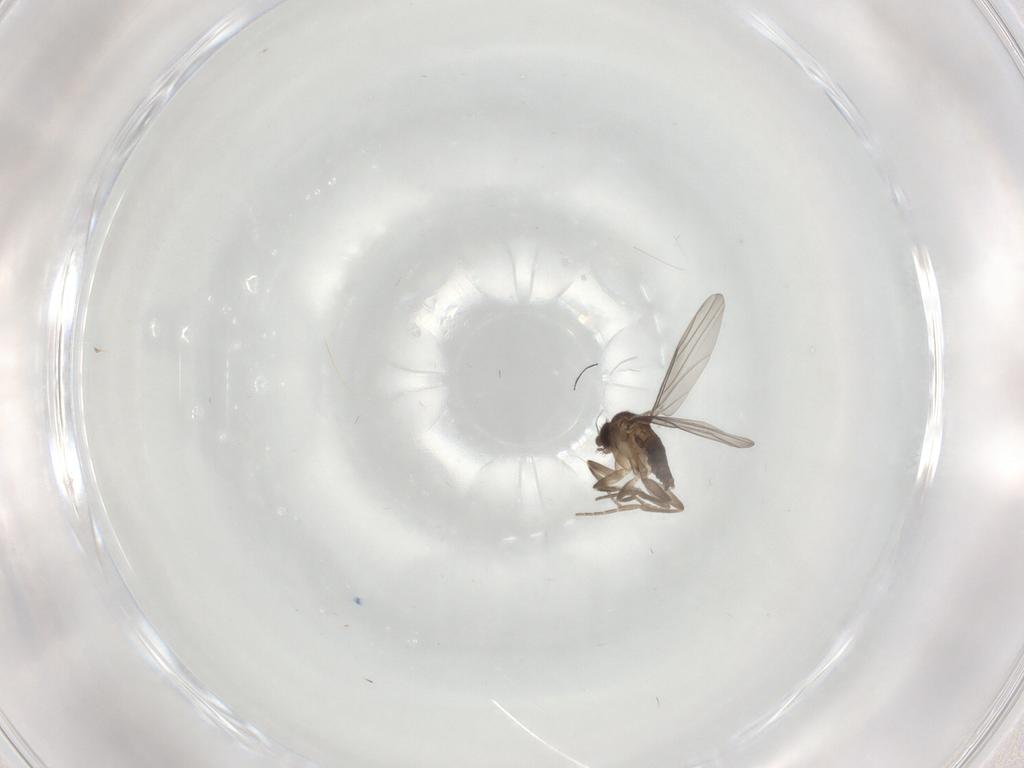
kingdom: Animalia
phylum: Arthropoda
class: Insecta
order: Diptera
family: Phoridae
